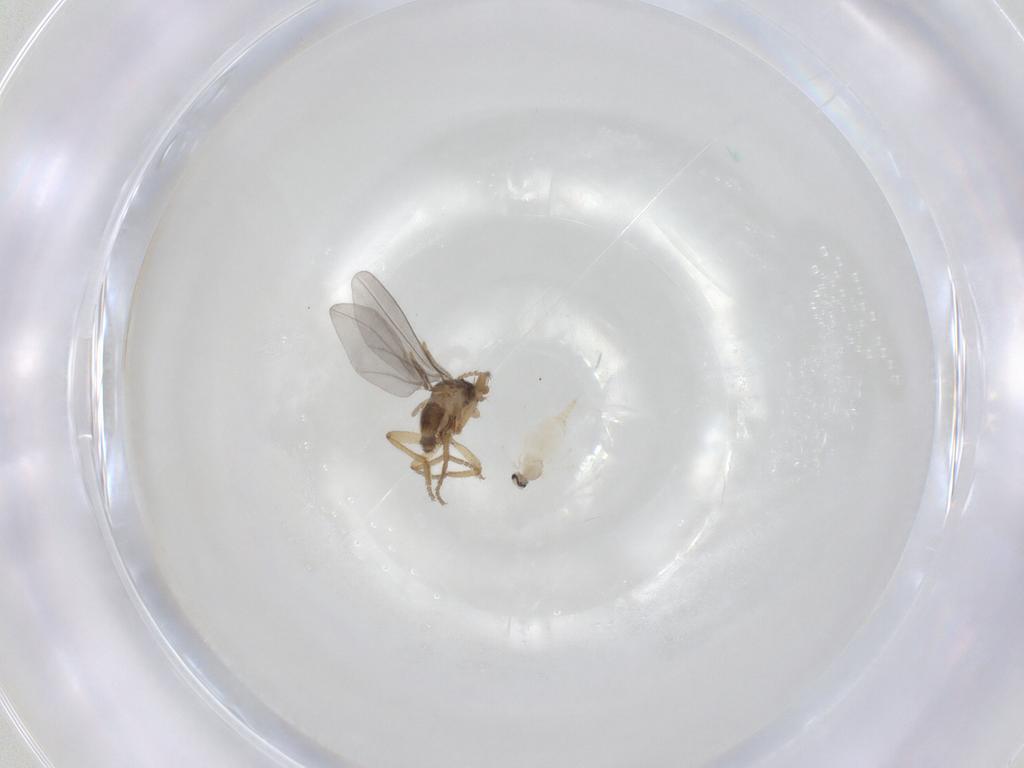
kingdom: Animalia
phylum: Arthropoda
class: Insecta
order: Diptera
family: Cecidomyiidae
